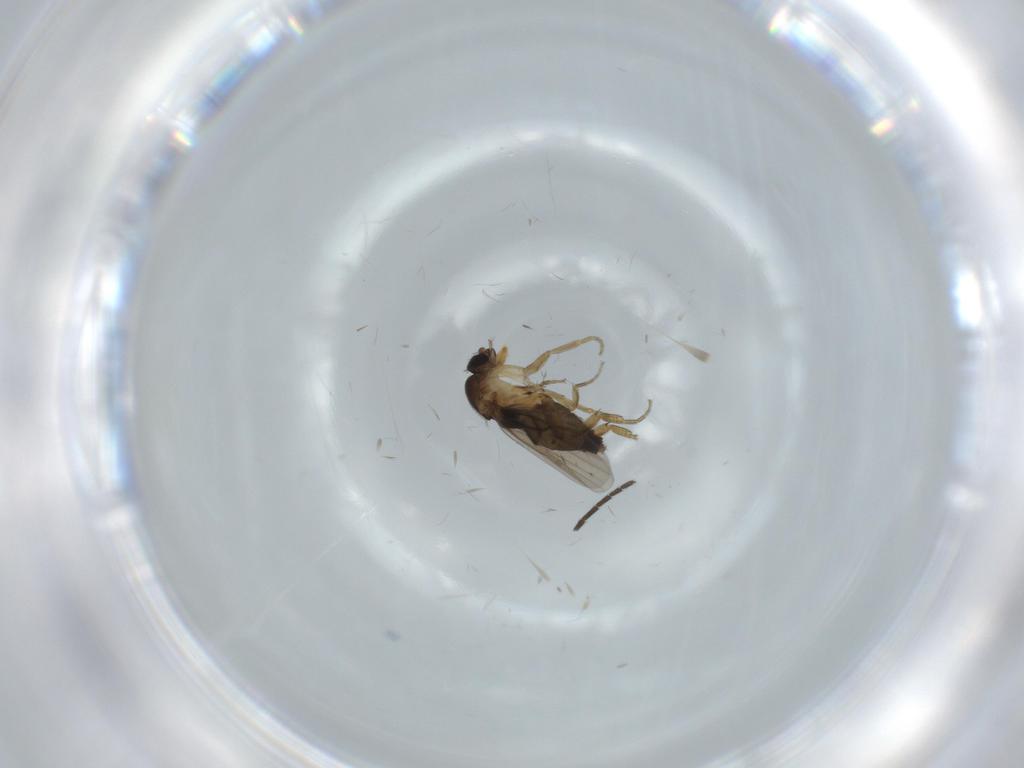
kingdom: Animalia
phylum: Arthropoda
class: Insecta
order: Diptera
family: Phoridae
